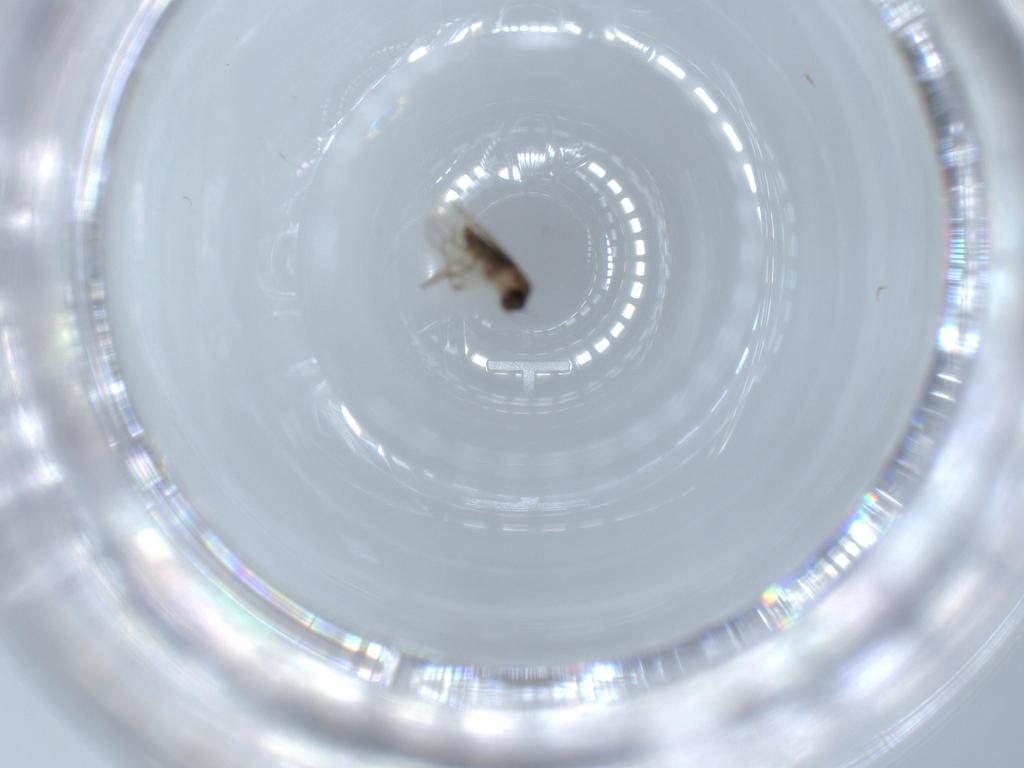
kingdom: Animalia
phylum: Arthropoda
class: Insecta
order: Diptera
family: Phoridae
